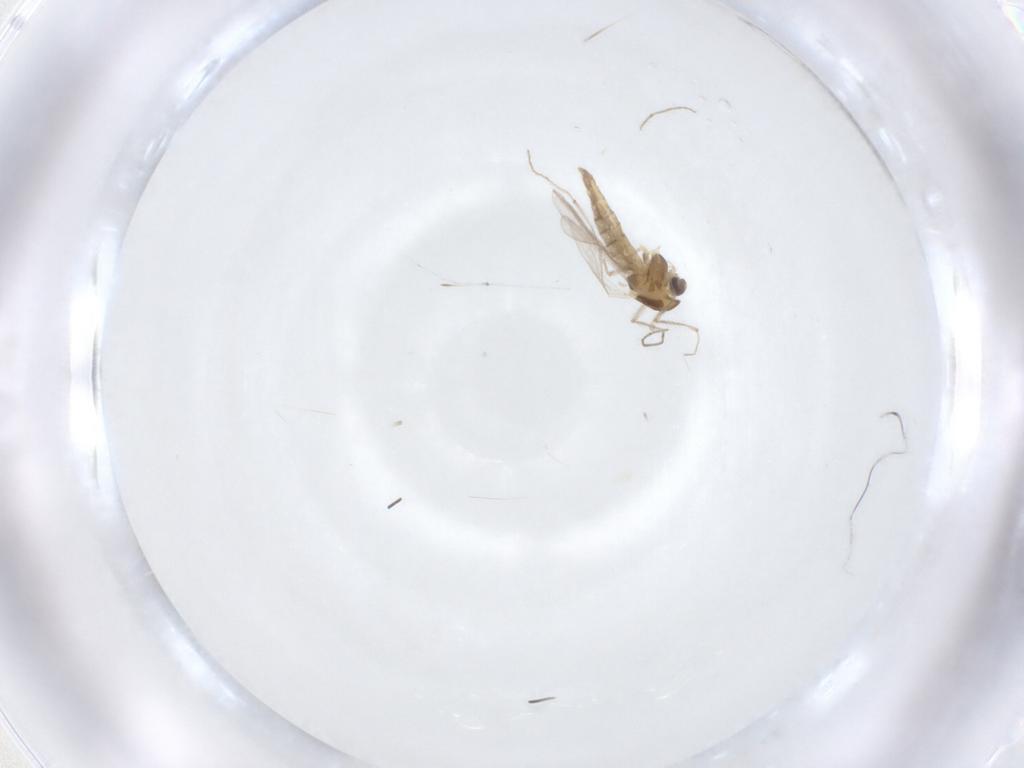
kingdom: Animalia
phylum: Arthropoda
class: Insecta
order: Diptera
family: Chironomidae
